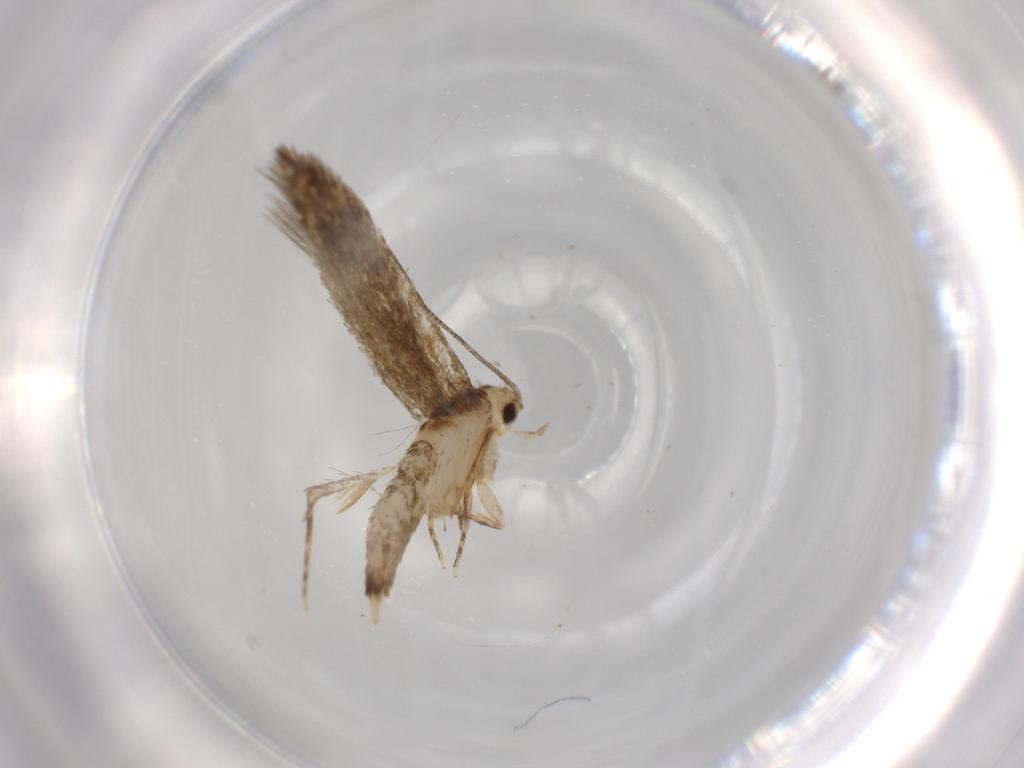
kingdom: Animalia
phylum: Arthropoda
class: Insecta
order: Lepidoptera
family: Tineidae
